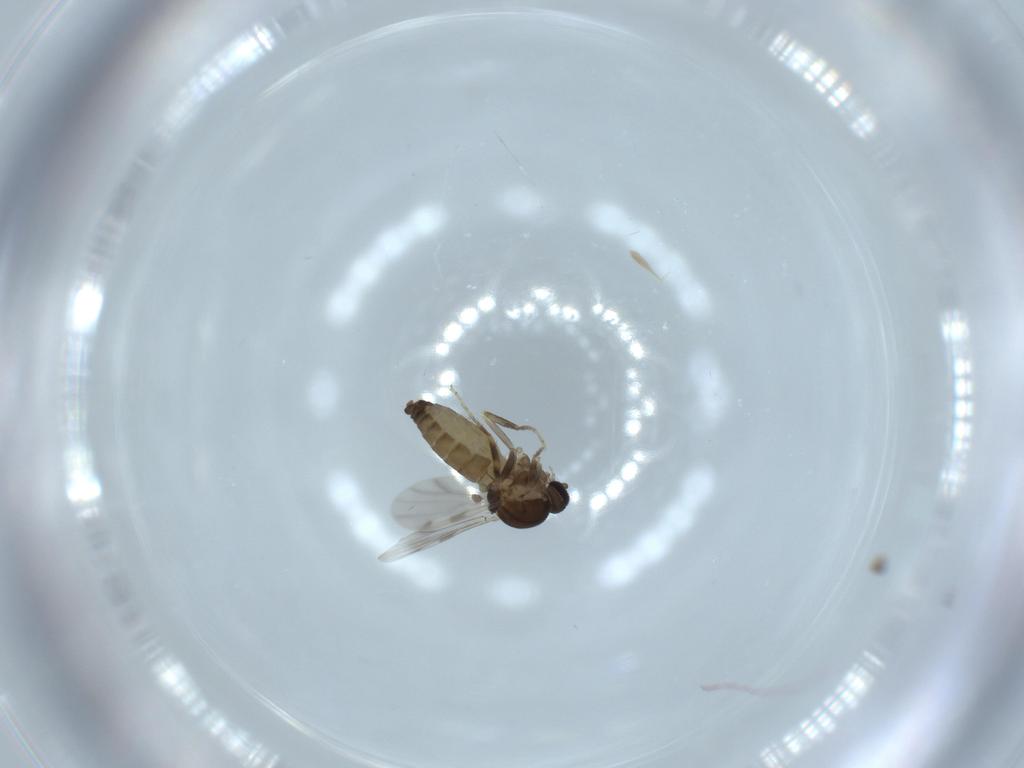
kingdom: Animalia
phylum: Arthropoda
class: Insecta
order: Diptera
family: Ceratopogonidae
